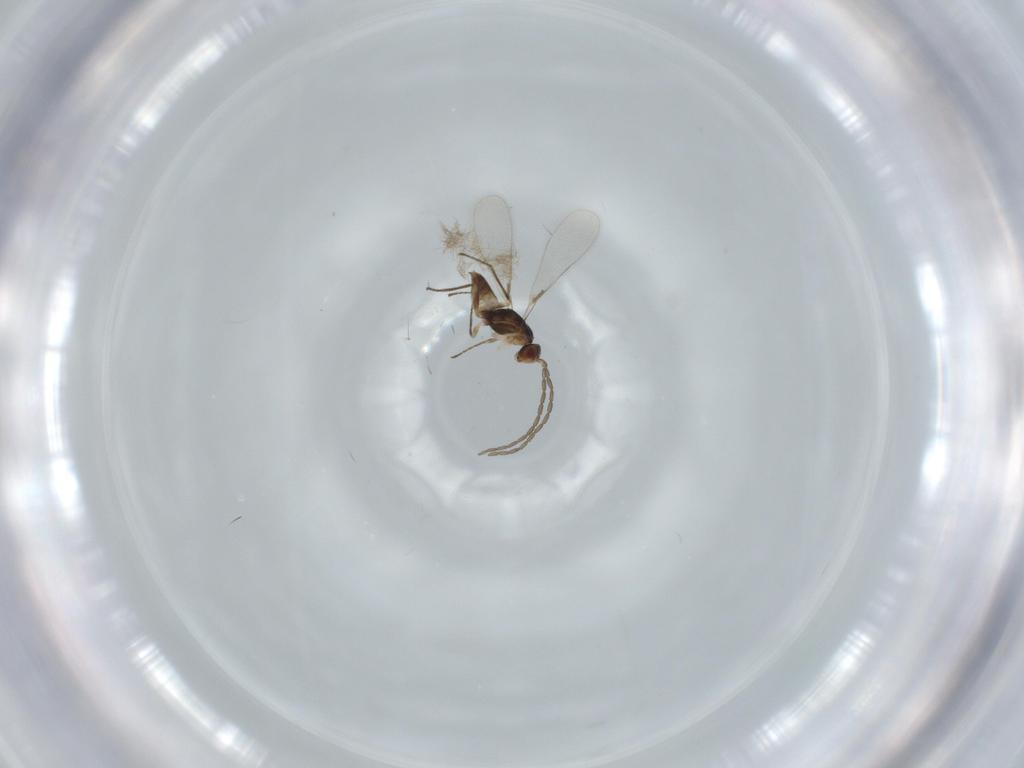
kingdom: Animalia
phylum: Arthropoda
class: Insecta
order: Hymenoptera
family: Mymaridae
